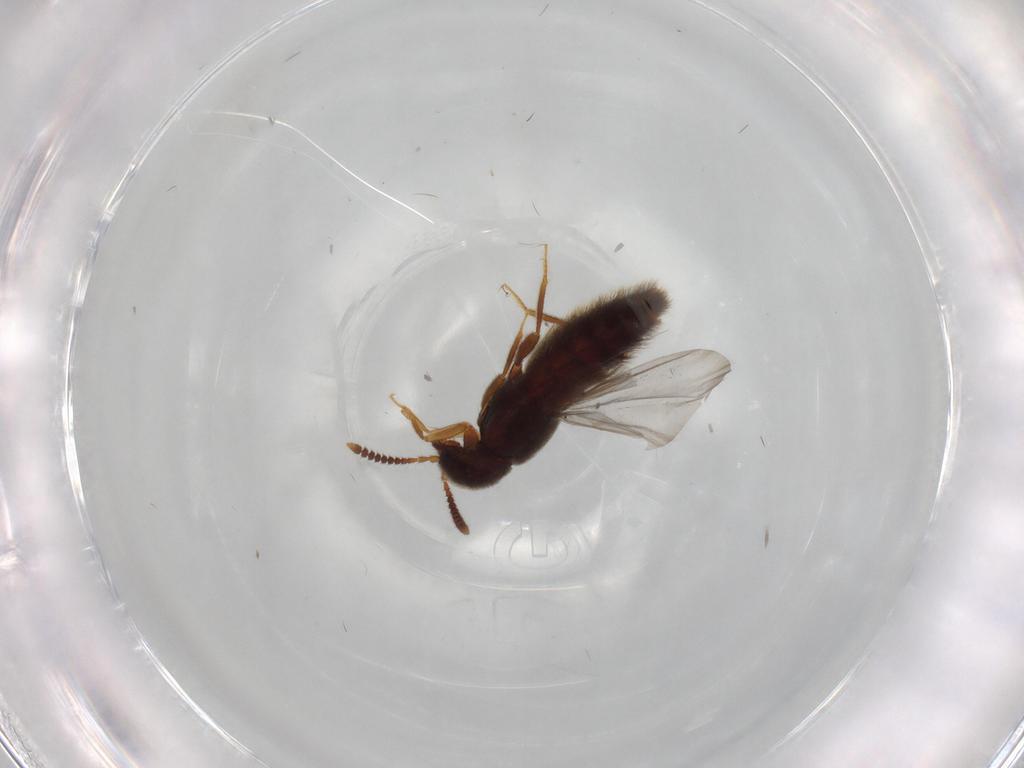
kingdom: Animalia
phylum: Arthropoda
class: Insecta
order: Coleoptera
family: Staphylinidae
